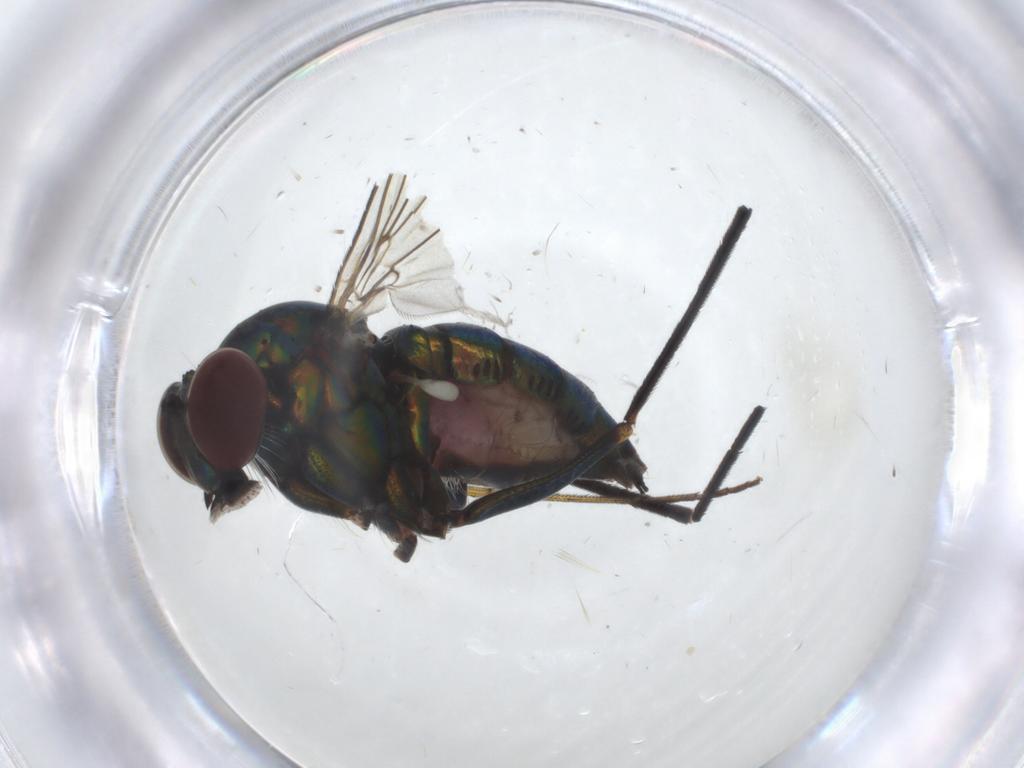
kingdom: Animalia
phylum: Arthropoda
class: Insecta
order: Diptera
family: Dolichopodidae
